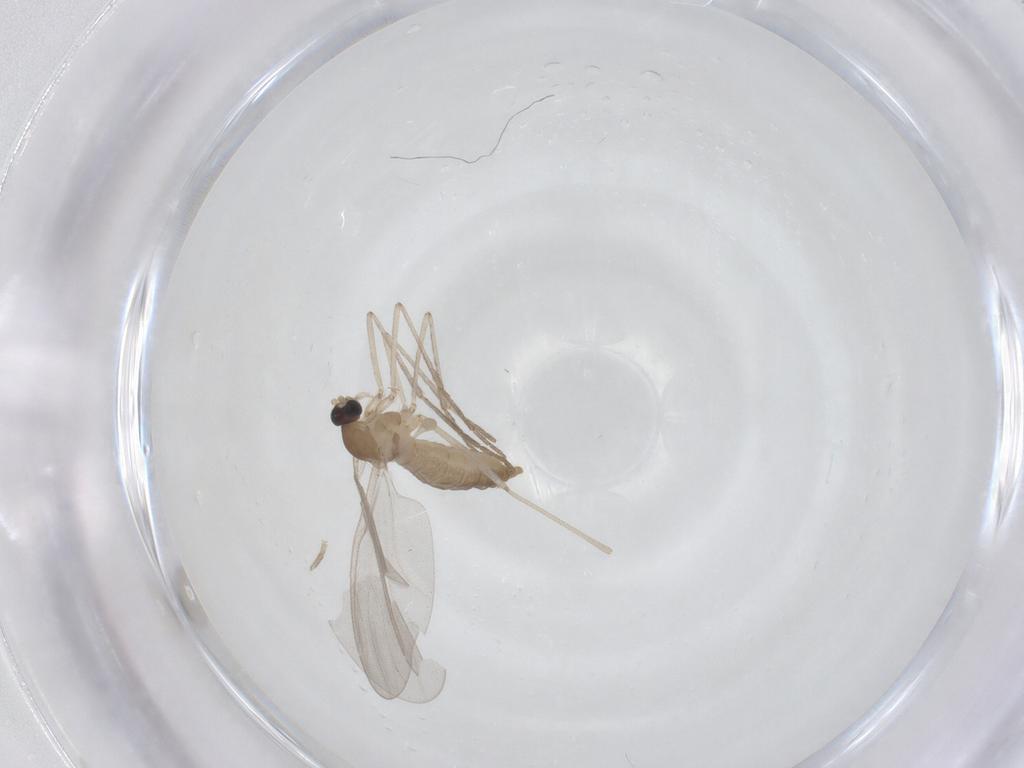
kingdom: Animalia
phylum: Arthropoda
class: Insecta
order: Diptera
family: Cecidomyiidae
